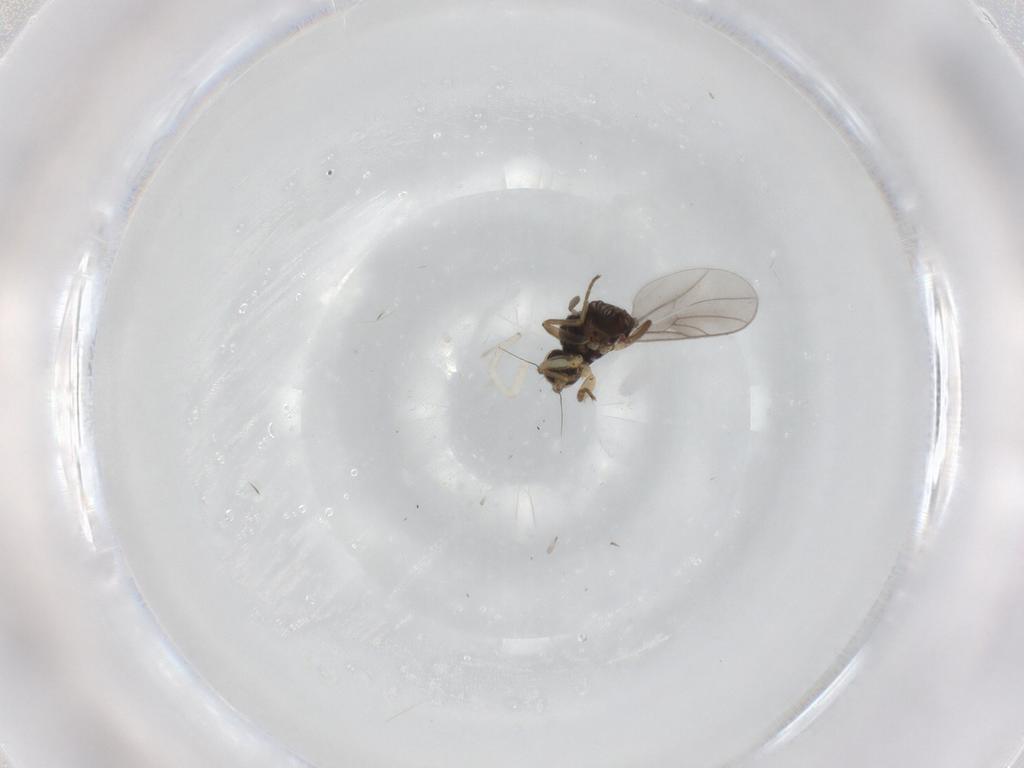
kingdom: Animalia
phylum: Arthropoda
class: Insecta
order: Diptera
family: Hybotidae
